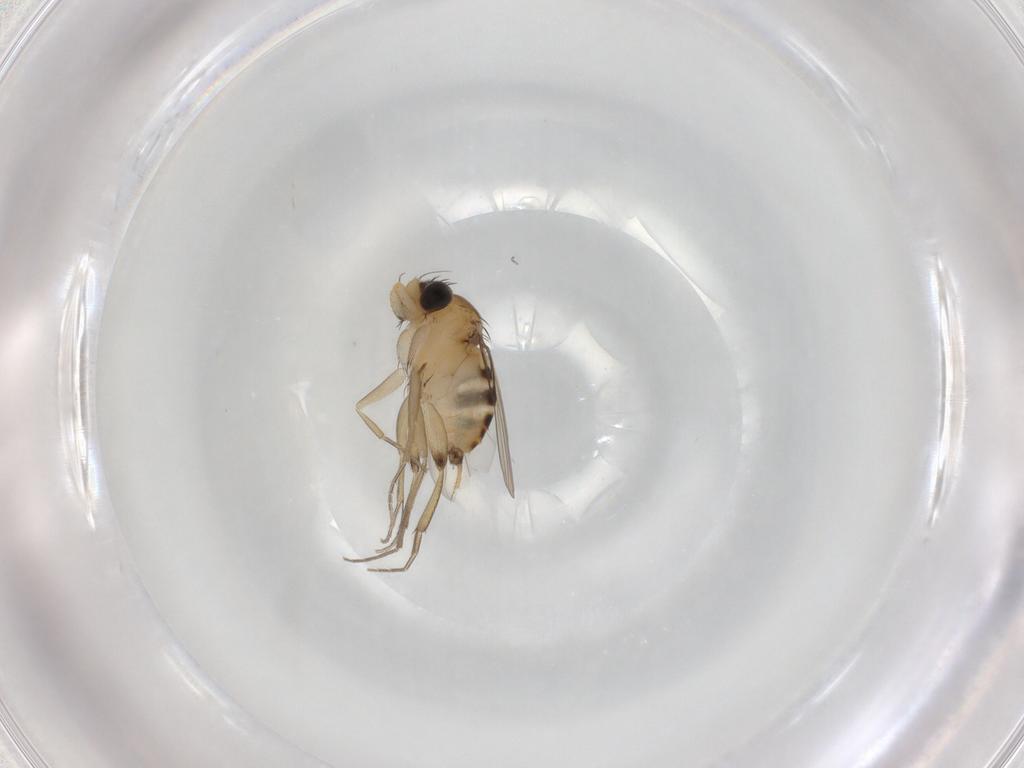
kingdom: Animalia
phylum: Arthropoda
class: Insecta
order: Diptera
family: Phoridae
